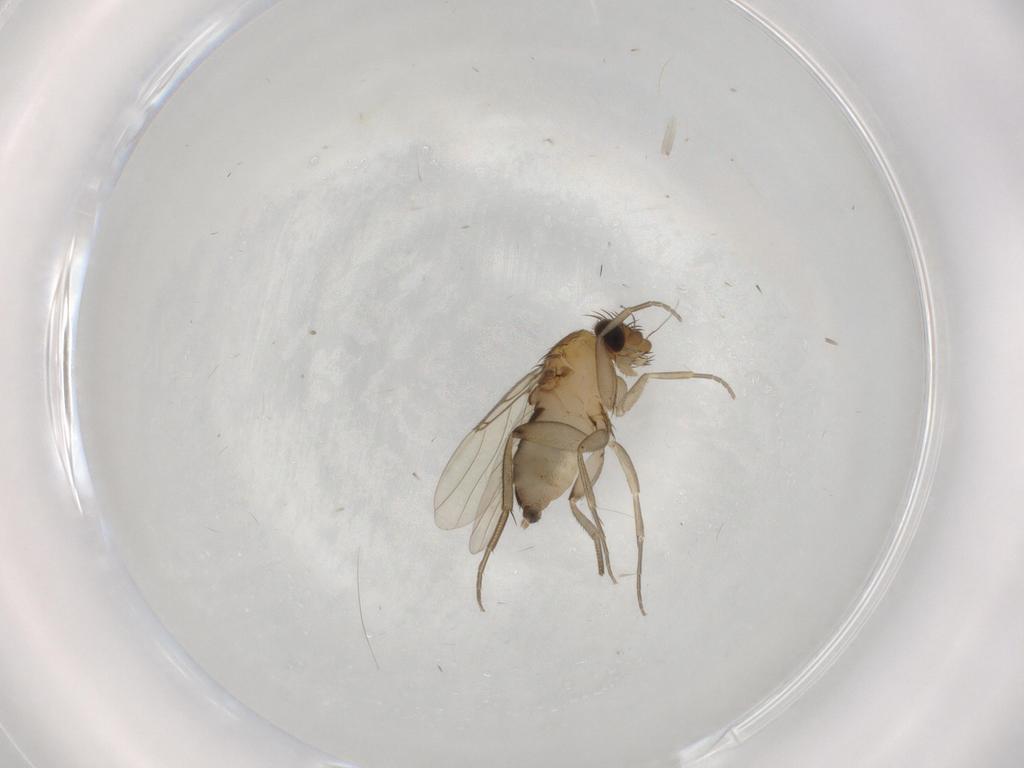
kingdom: Animalia
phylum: Arthropoda
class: Insecta
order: Diptera
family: Phoridae
